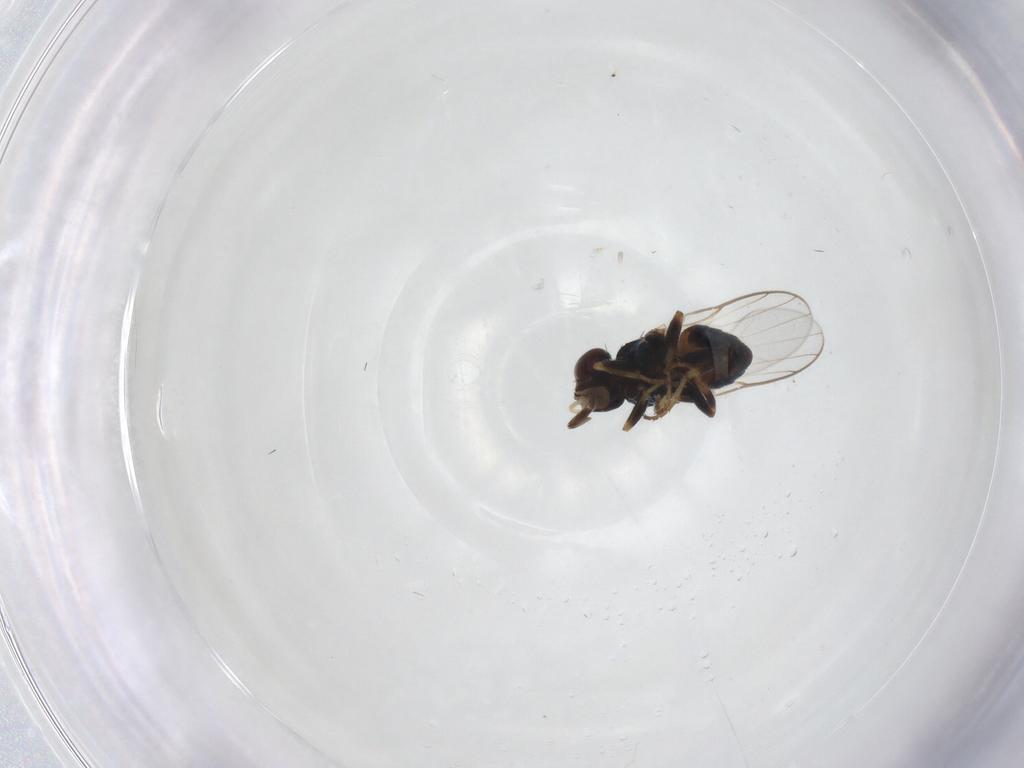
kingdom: Animalia
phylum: Arthropoda
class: Insecta
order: Diptera
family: Chloropidae
